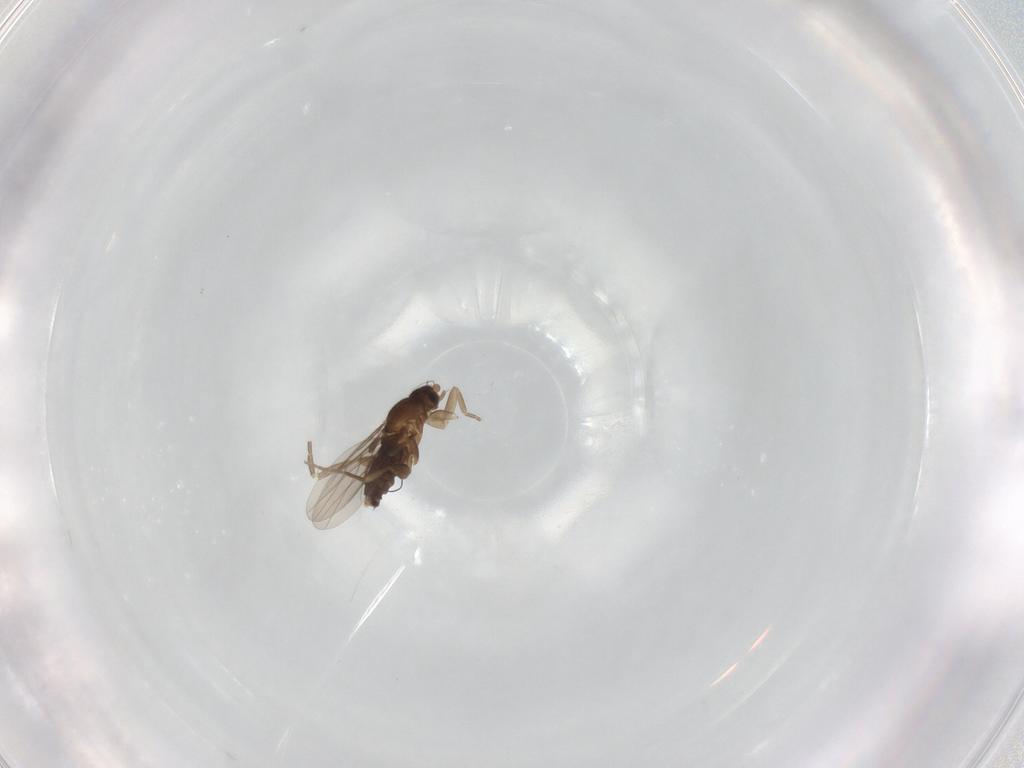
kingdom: Animalia
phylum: Arthropoda
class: Insecta
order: Diptera
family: Phoridae
